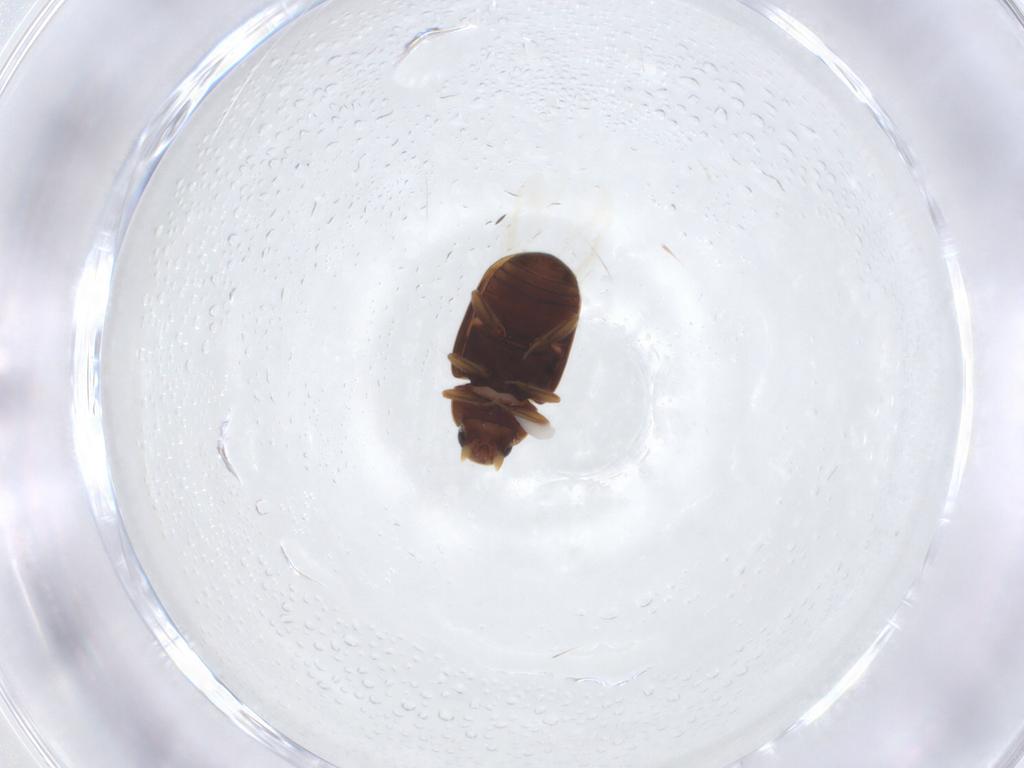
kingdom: Animalia
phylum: Arthropoda
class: Insecta
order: Coleoptera
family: Coccinellidae
